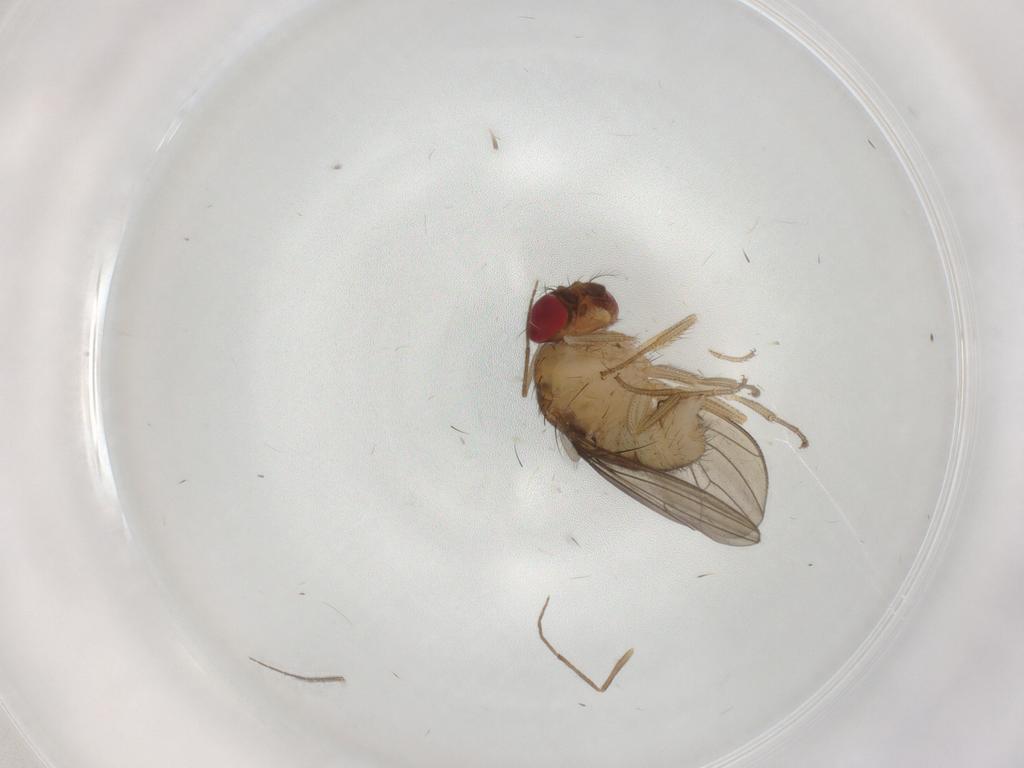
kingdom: Animalia
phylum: Arthropoda
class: Insecta
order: Diptera
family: Drosophilidae
